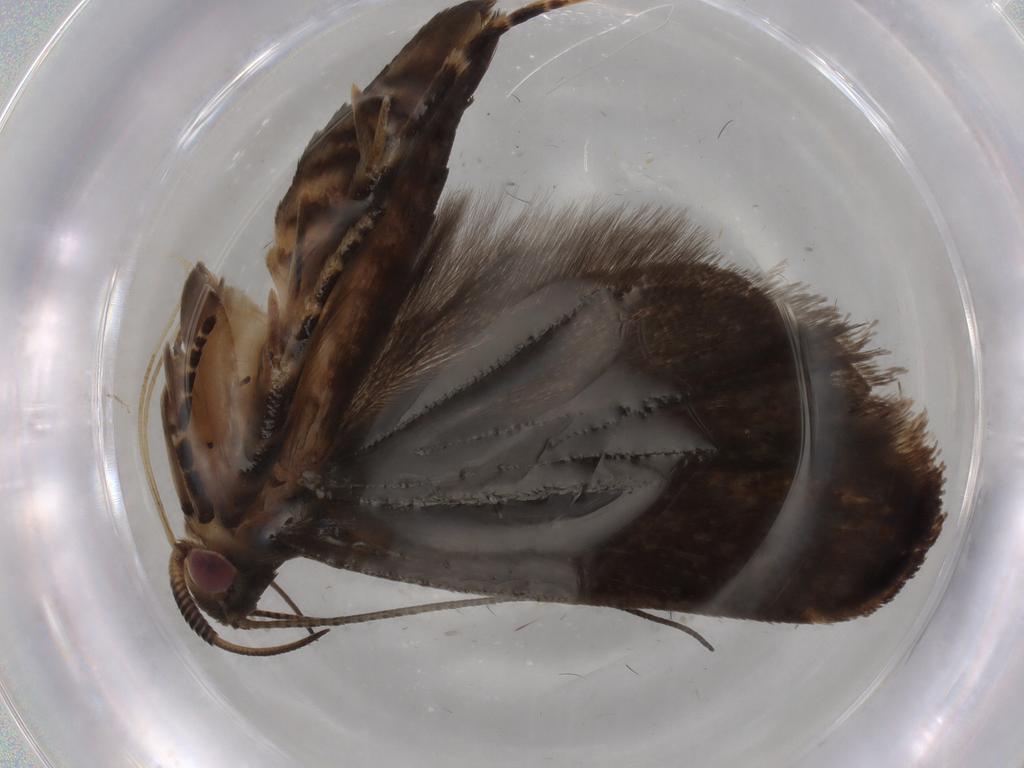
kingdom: Animalia
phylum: Arthropoda
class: Insecta
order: Lepidoptera
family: Gelechiidae
